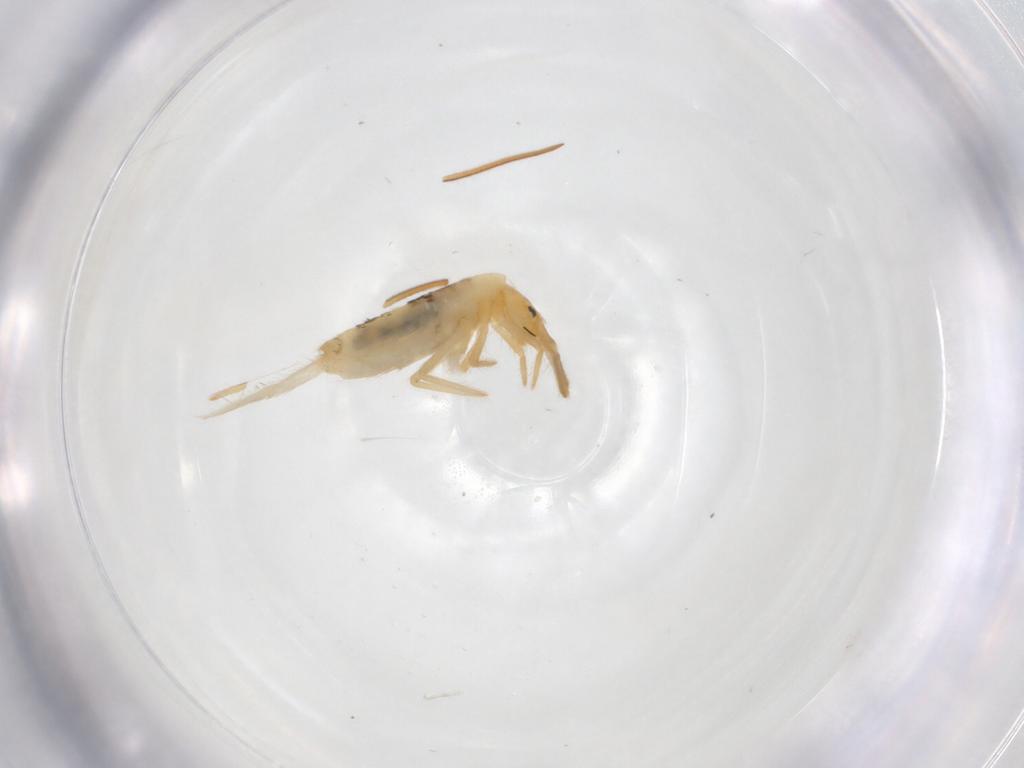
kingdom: Animalia
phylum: Arthropoda
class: Collembola
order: Entomobryomorpha
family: Entomobryidae
